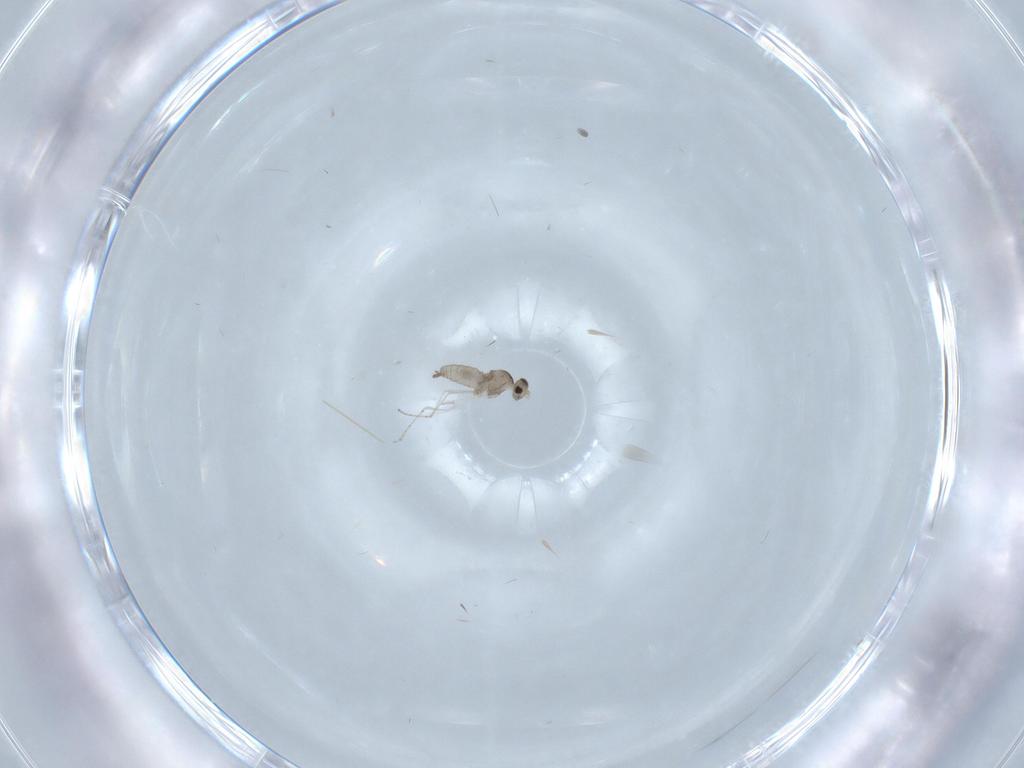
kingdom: Animalia
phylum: Arthropoda
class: Insecta
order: Diptera
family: Cecidomyiidae
